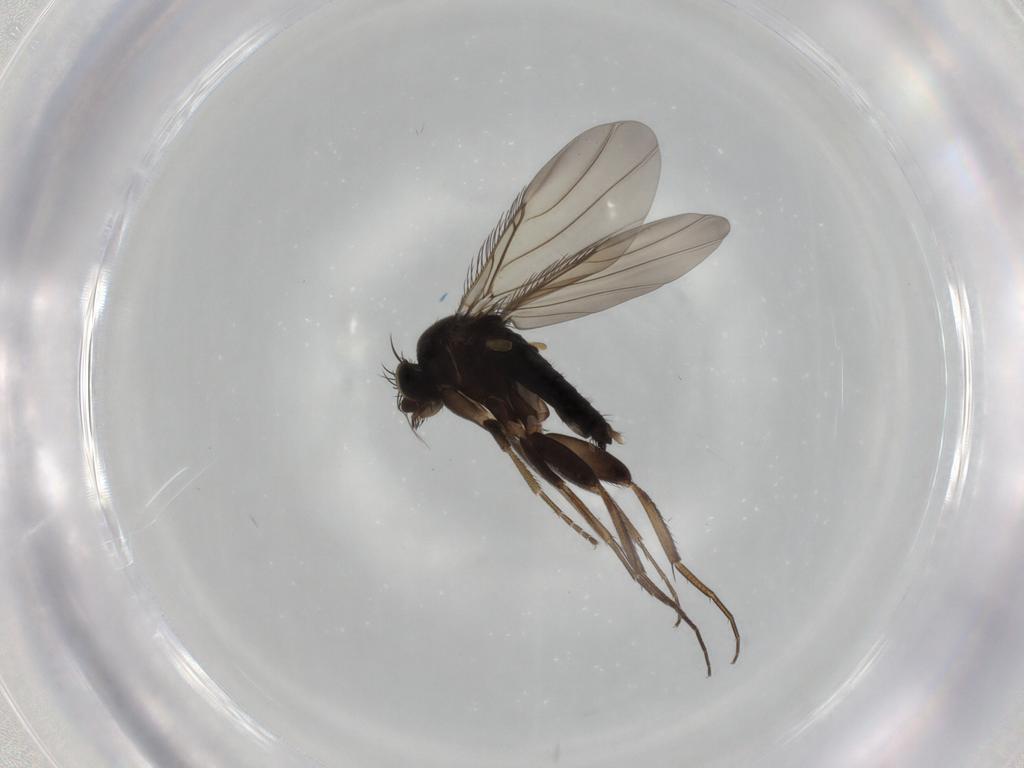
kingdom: Animalia
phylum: Arthropoda
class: Insecta
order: Diptera
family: Phoridae
